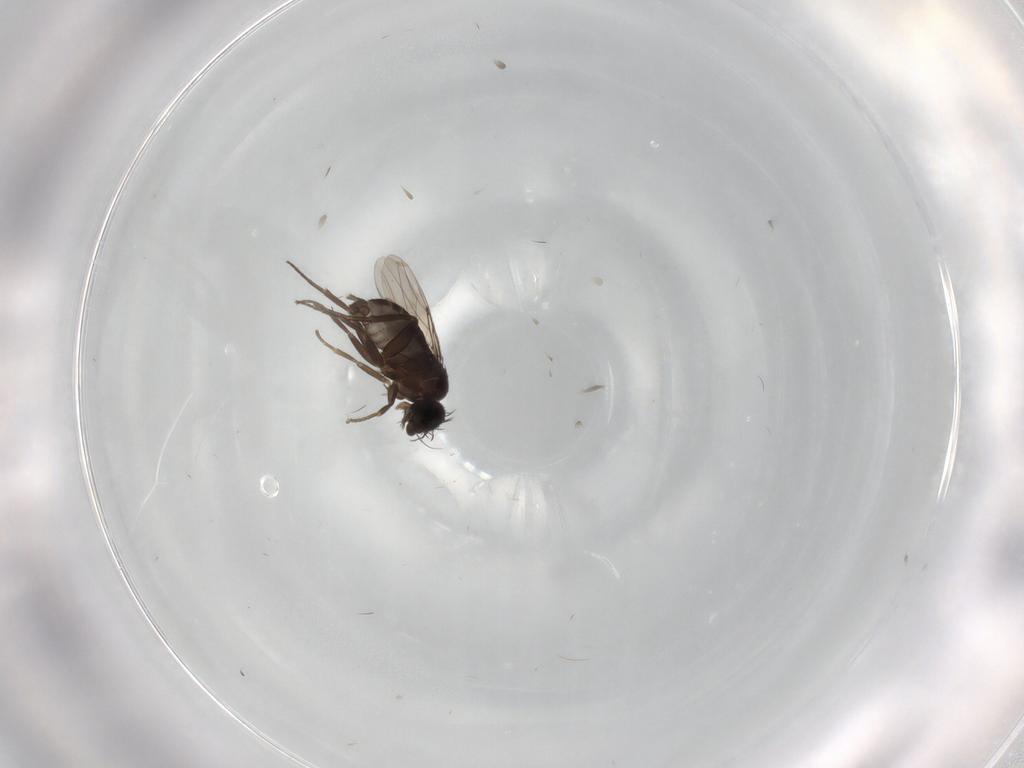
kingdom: Animalia
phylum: Arthropoda
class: Insecta
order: Diptera
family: Phoridae
